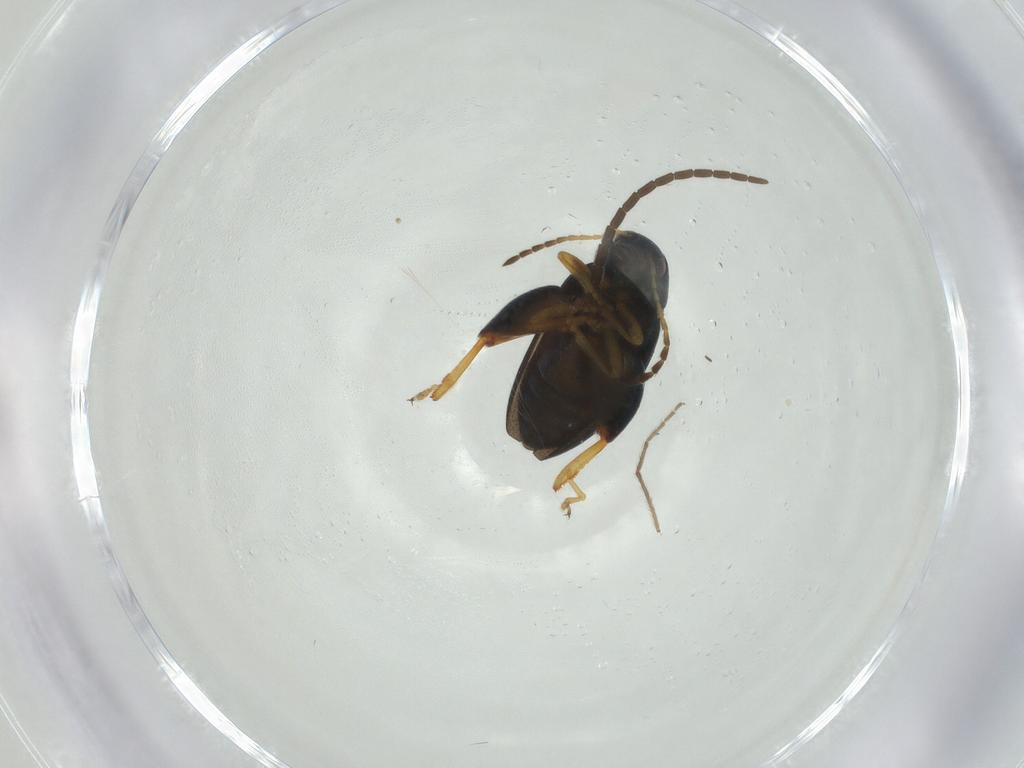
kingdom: Animalia
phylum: Arthropoda
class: Insecta
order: Coleoptera
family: Chrysomelidae
